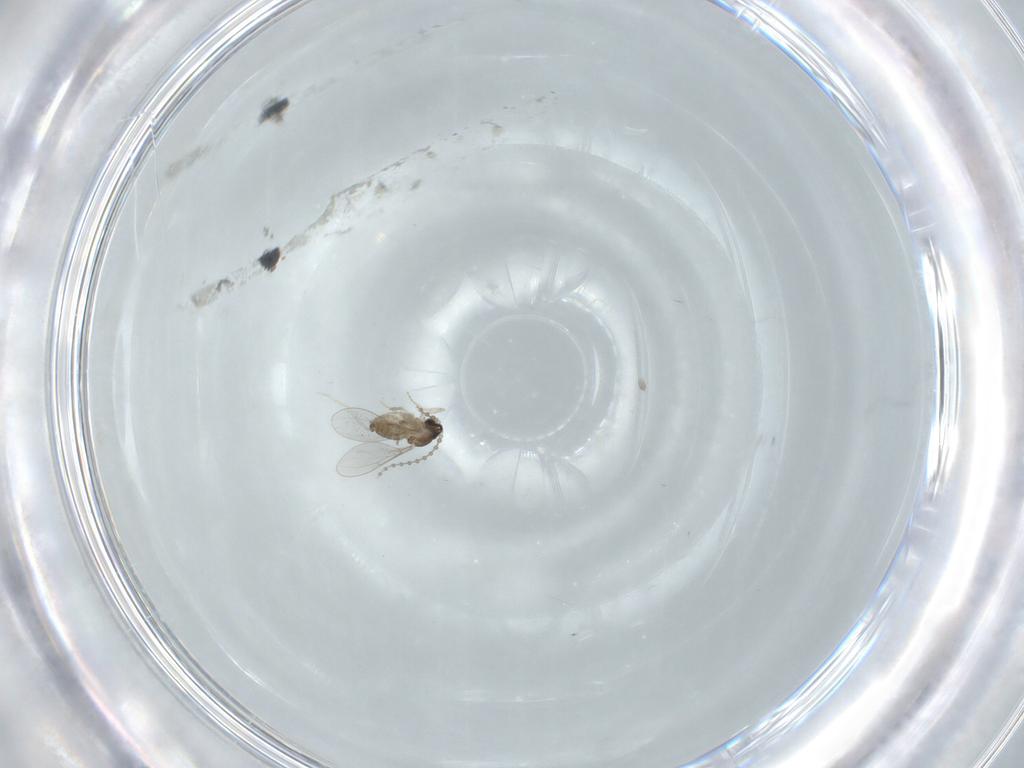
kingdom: Animalia
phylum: Arthropoda
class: Insecta
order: Diptera
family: Cecidomyiidae
